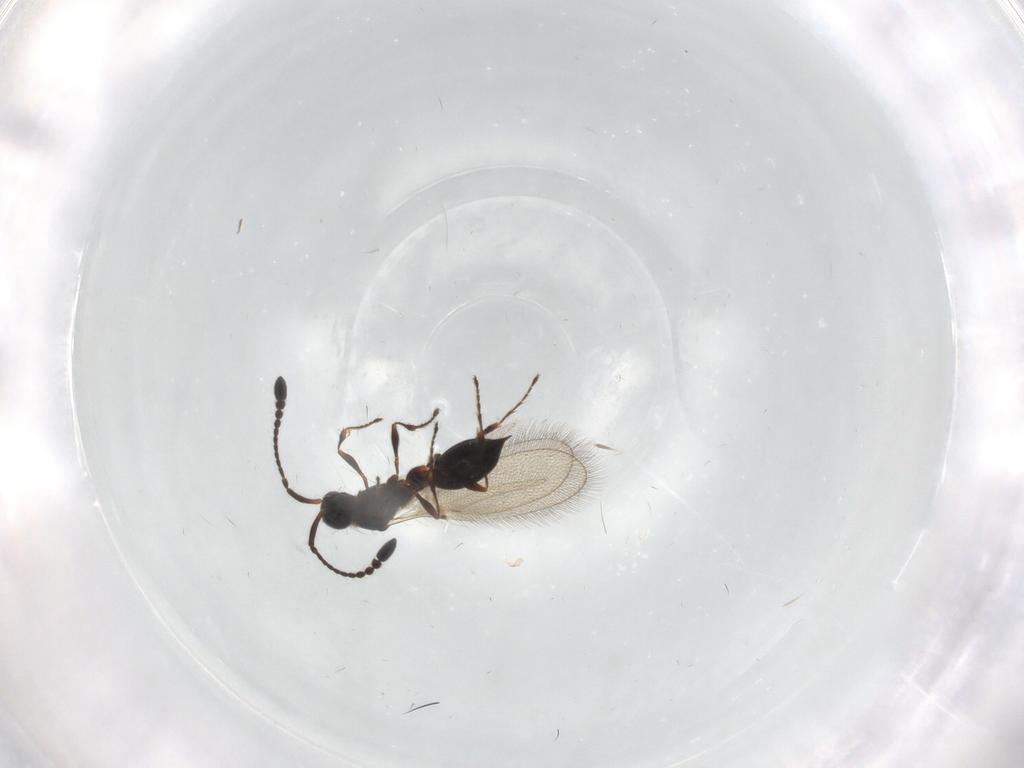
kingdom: Animalia
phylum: Arthropoda
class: Insecta
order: Hymenoptera
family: Diapriidae
